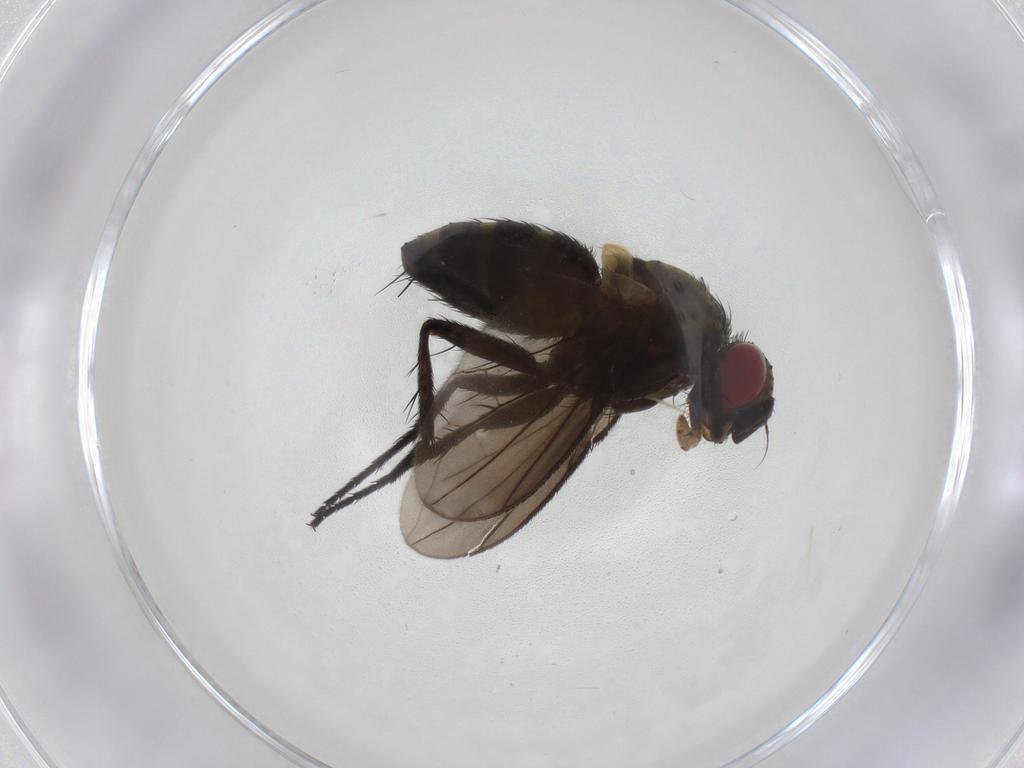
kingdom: Animalia
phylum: Arthropoda
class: Insecta
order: Diptera
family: Tachinidae
